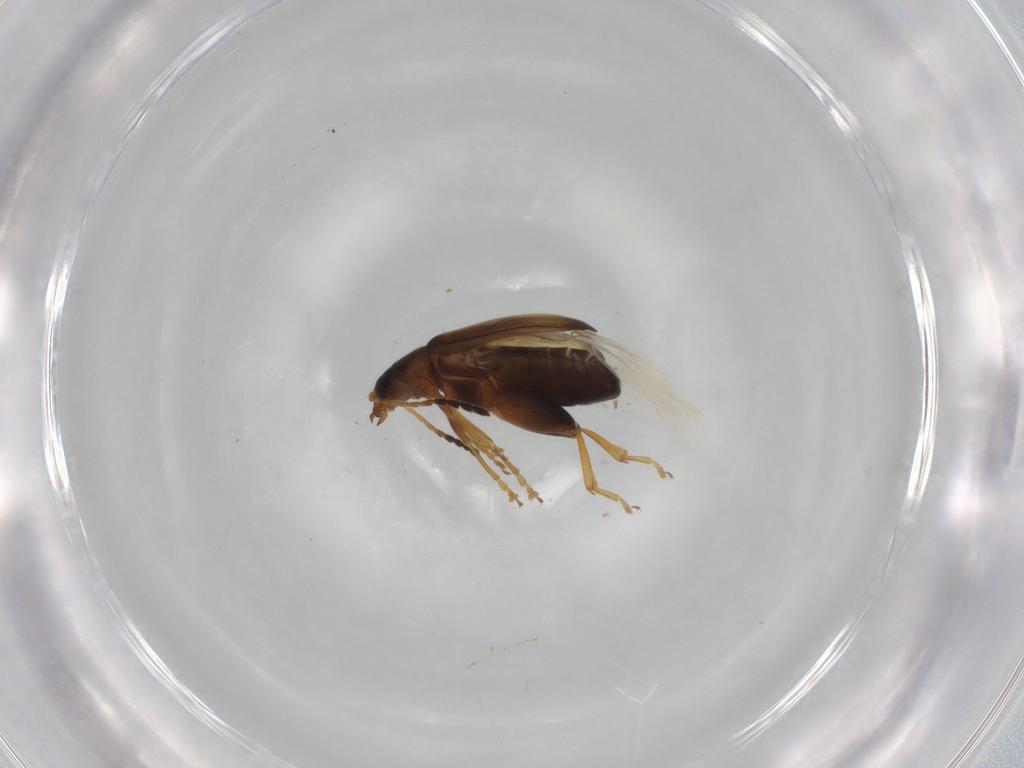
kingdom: Animalia
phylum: Arthropoda
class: Insecta
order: Coleoptera
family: Chrysomelidae
